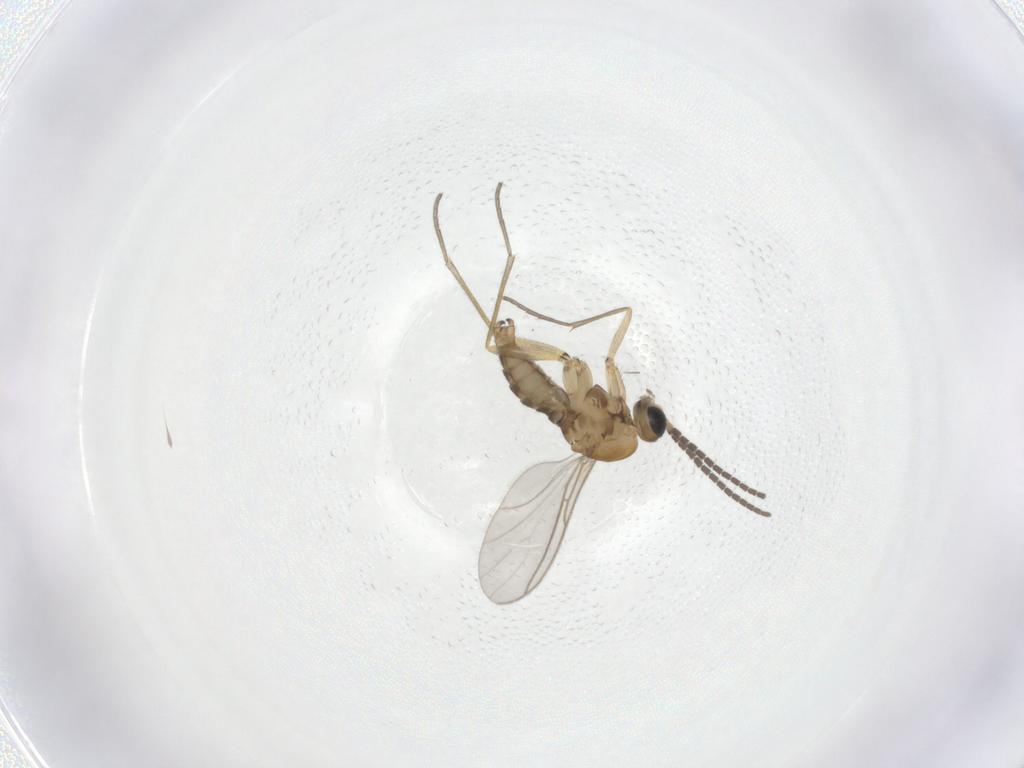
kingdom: Animalia
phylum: Arthropoda
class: Insecta
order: Diptera
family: Sciaridae
